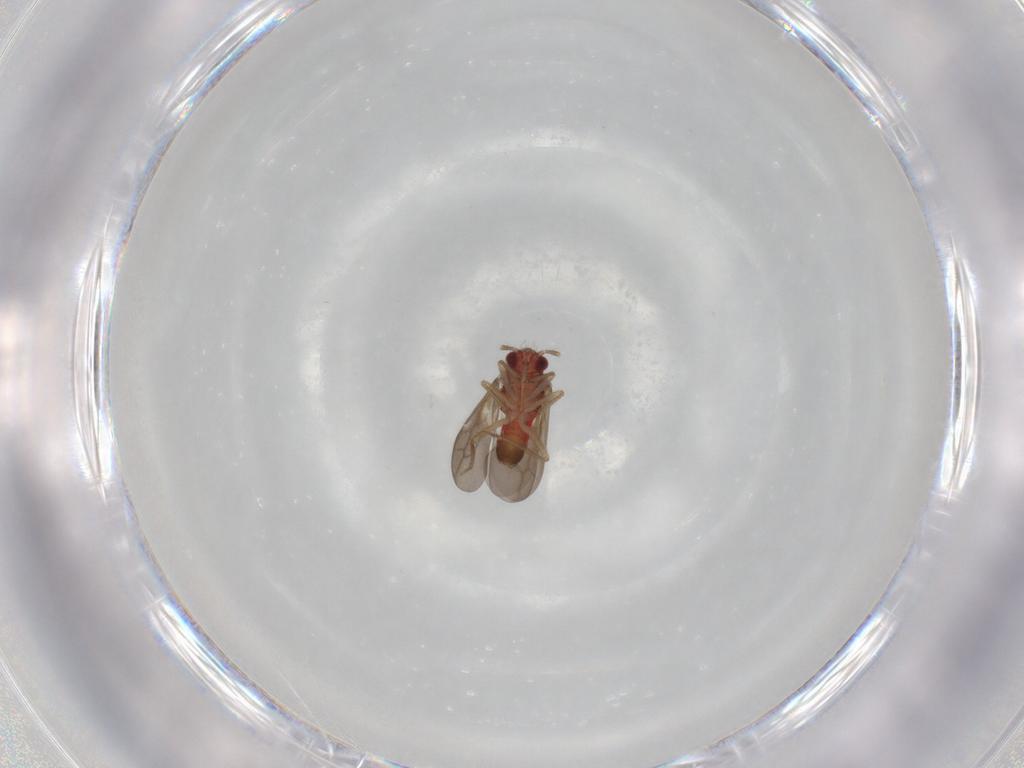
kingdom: Animalia
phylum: Arthropoda
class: Insecta
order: Hemiptera
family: Ceratocombidae
